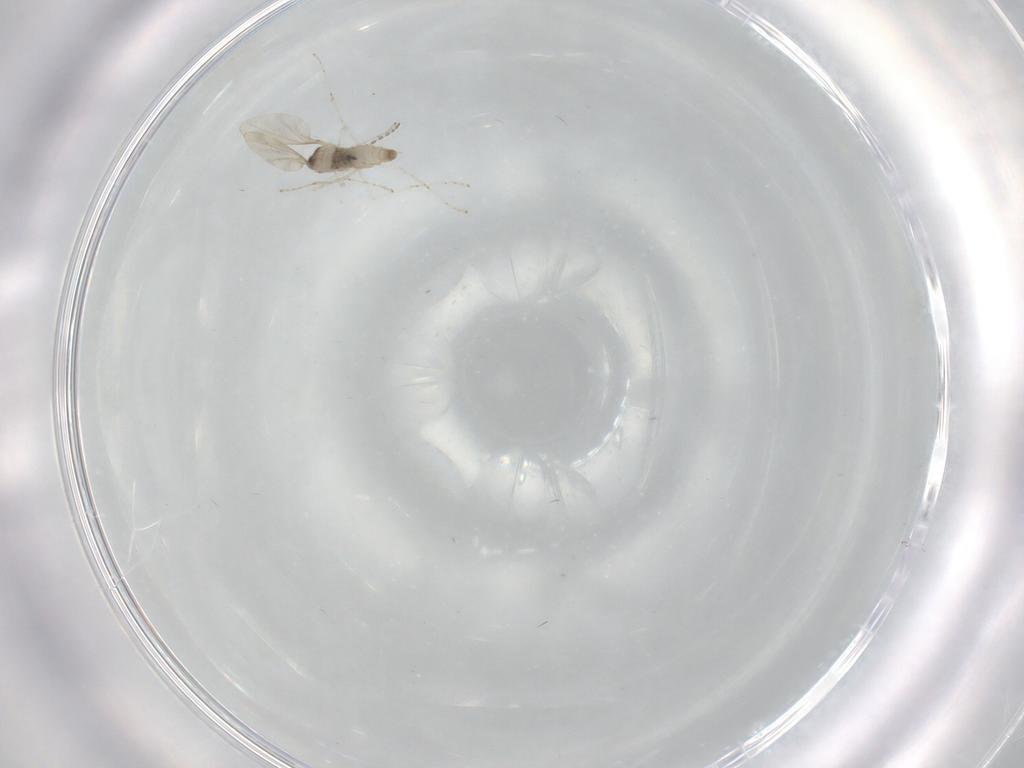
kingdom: Animalia
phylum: Arthropoda
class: Insecta
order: Diptera
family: Cecidomyiidae
